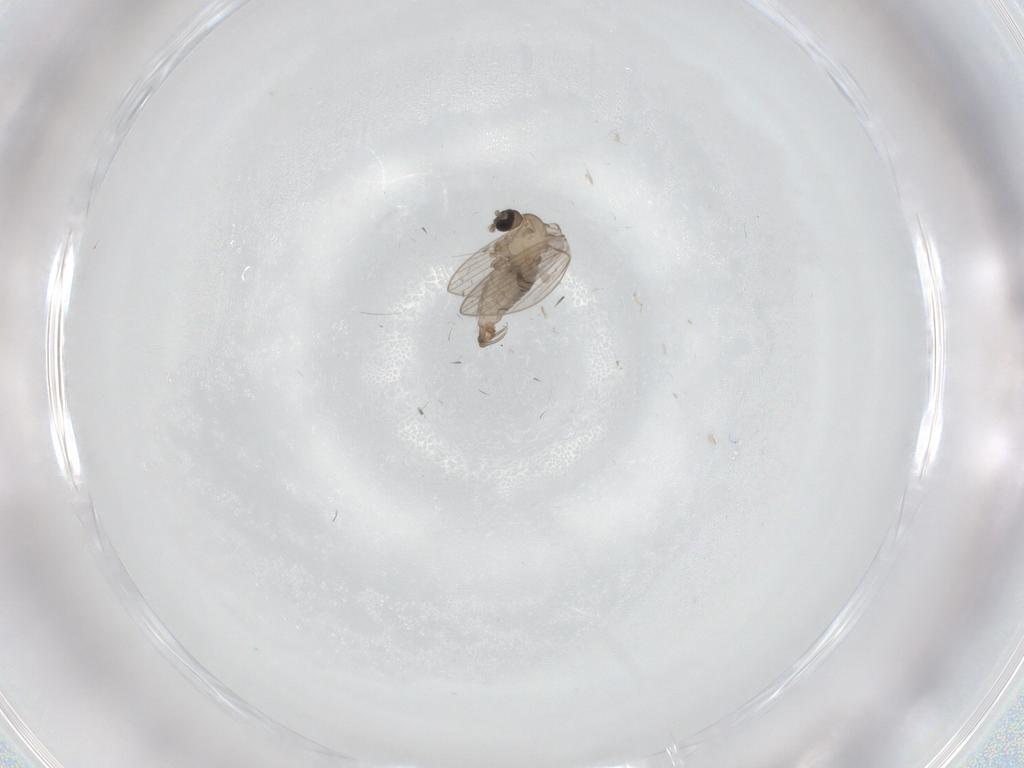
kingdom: Animalia
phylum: Arthropoda
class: Insecta
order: Diptera
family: Psychodidae
